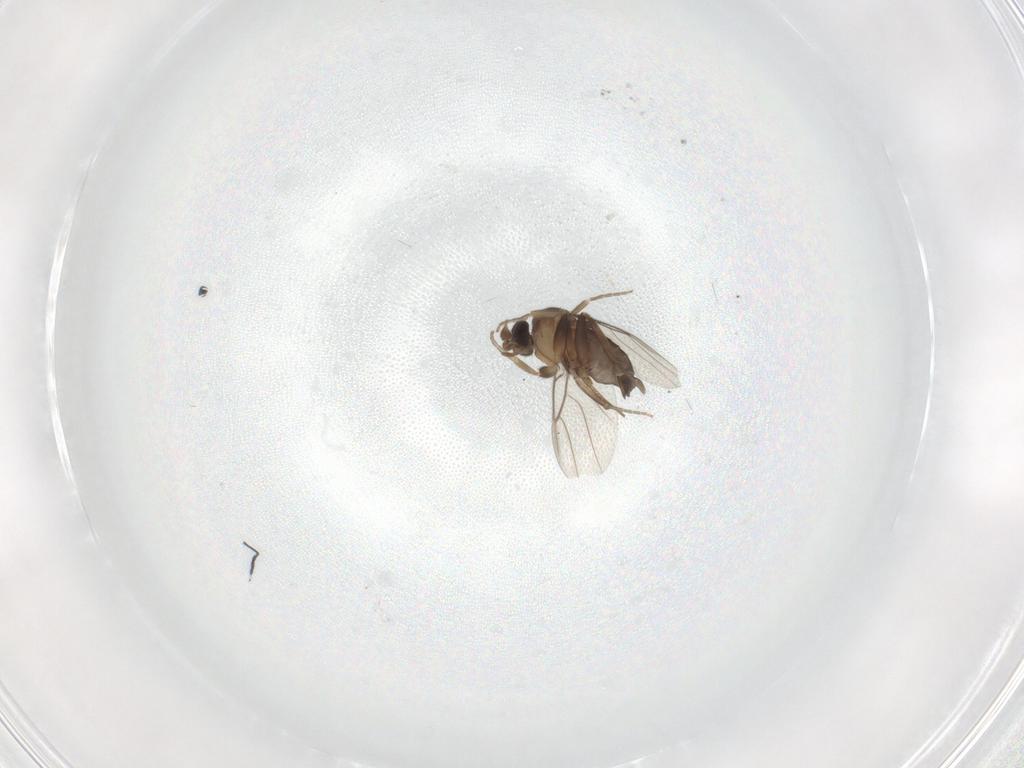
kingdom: Animalia
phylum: Arthropoda
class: Insecta
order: Diptera
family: Phoridae
